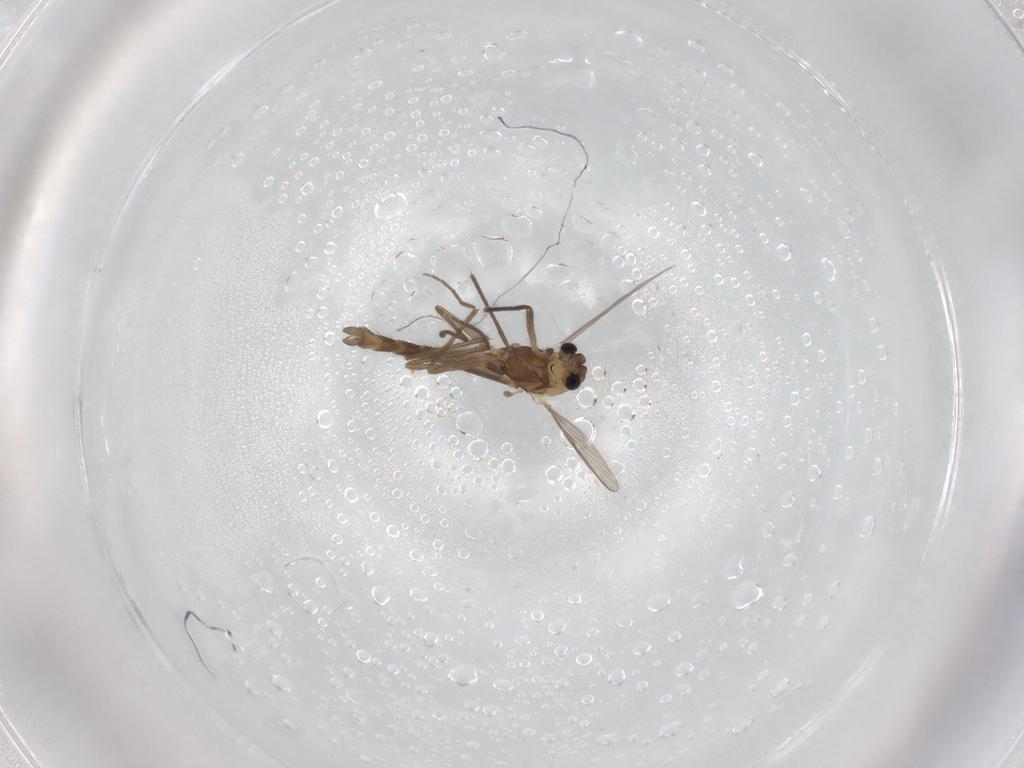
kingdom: Animalia
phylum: Arthropoda
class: Insecta
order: Diptera
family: Chironomidae
